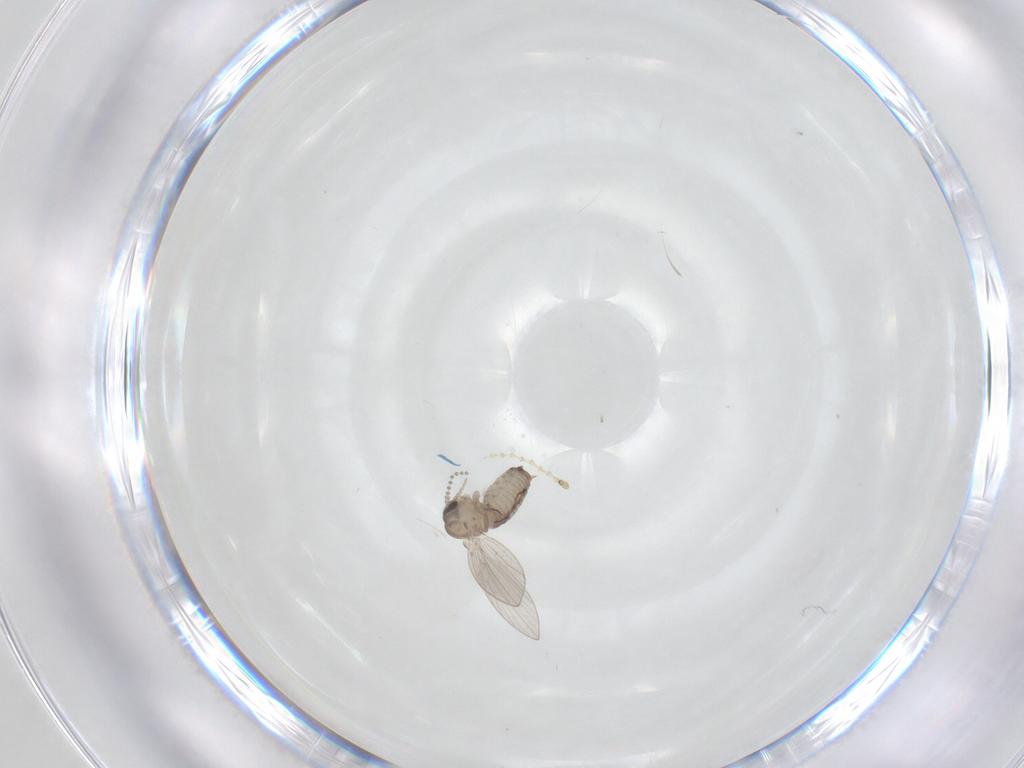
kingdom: Animalia
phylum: Arthropoda
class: Insecta
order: Diptera
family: Psychodidae
